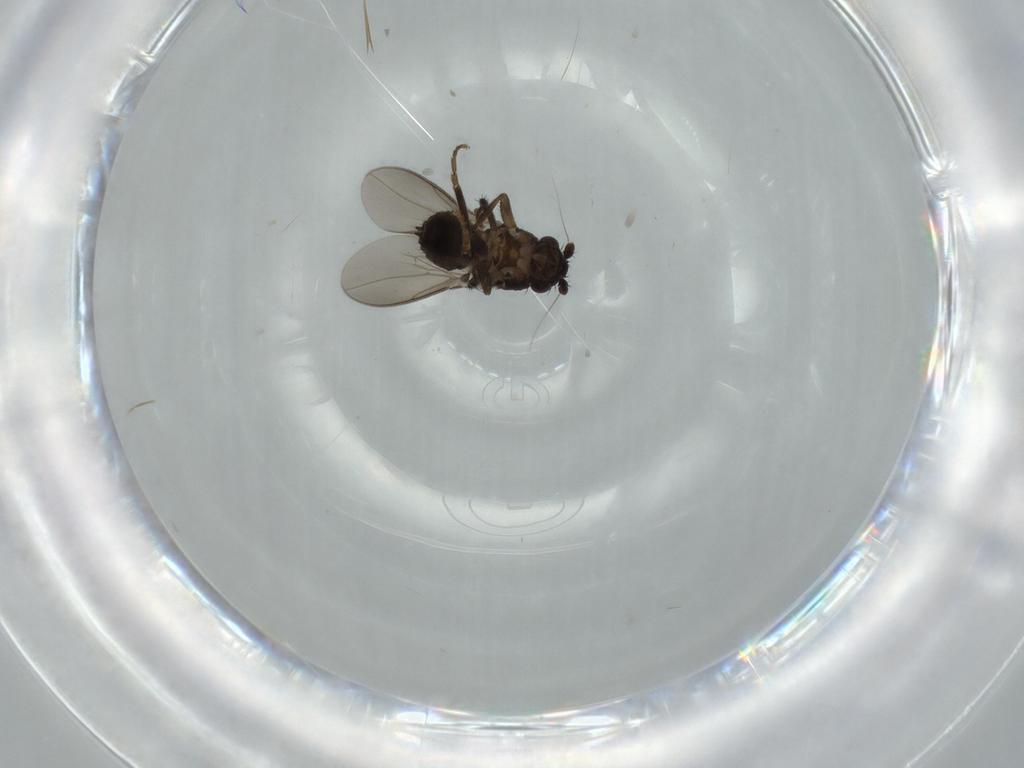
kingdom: Animalia
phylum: Arthropoda
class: Insecta
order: Diptera
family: Sphaeroceridae
